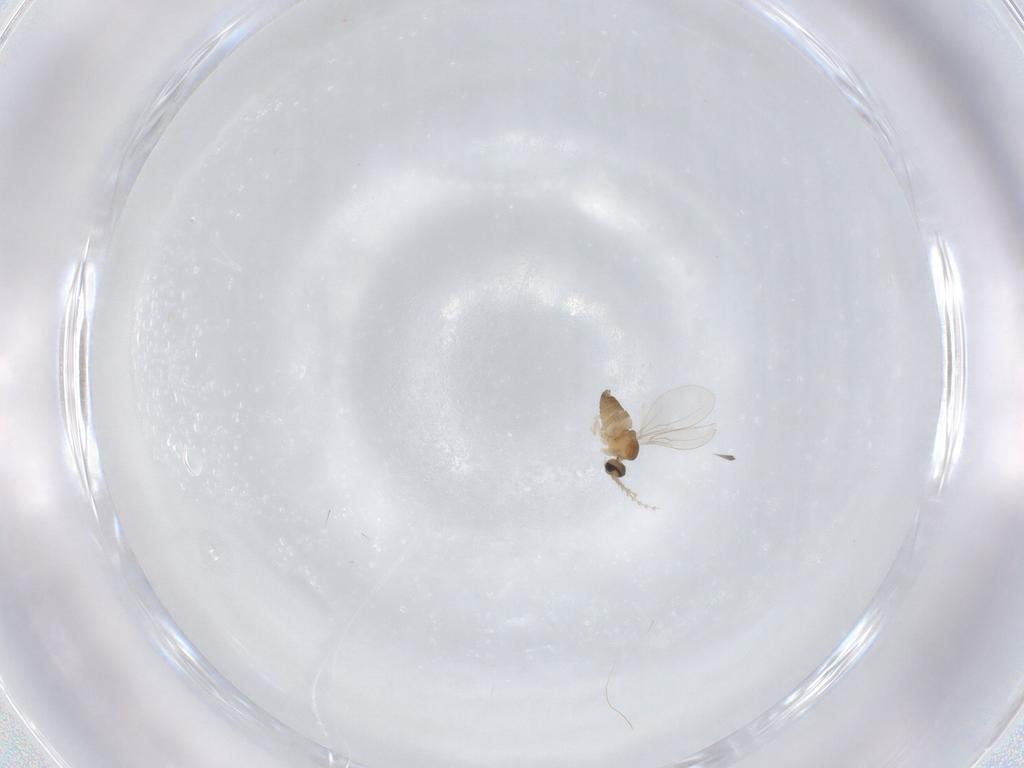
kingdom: Animalia
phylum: Arthropoda
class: Insecta
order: Diptera
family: Cecidomyiidae
